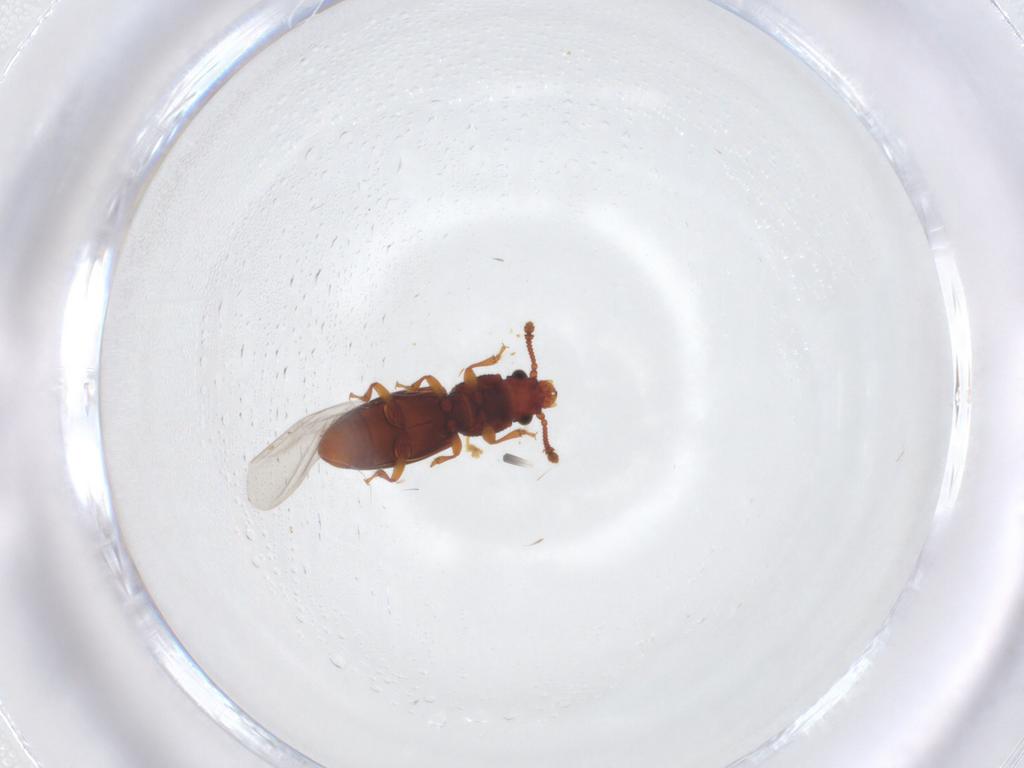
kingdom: Animalia
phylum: Arthropoda
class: Insecta
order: Coleoptera
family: Monotomidae
